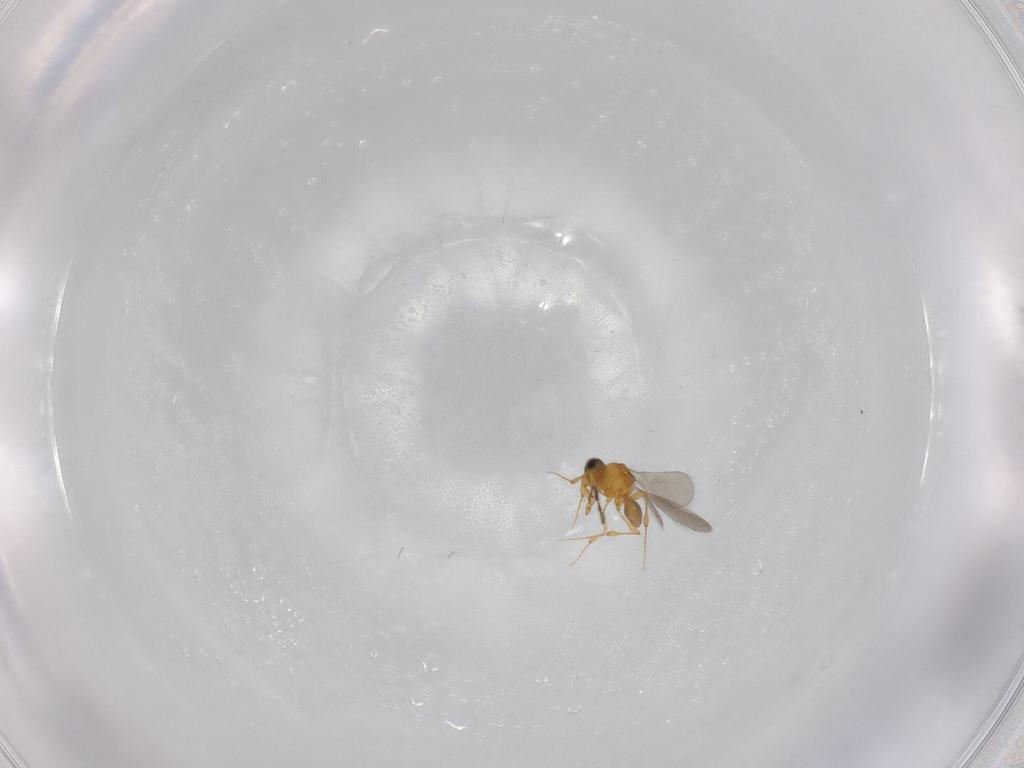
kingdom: Animalia
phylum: Arthropoda
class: Insecta
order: Hymenoptera
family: Platygastridae
